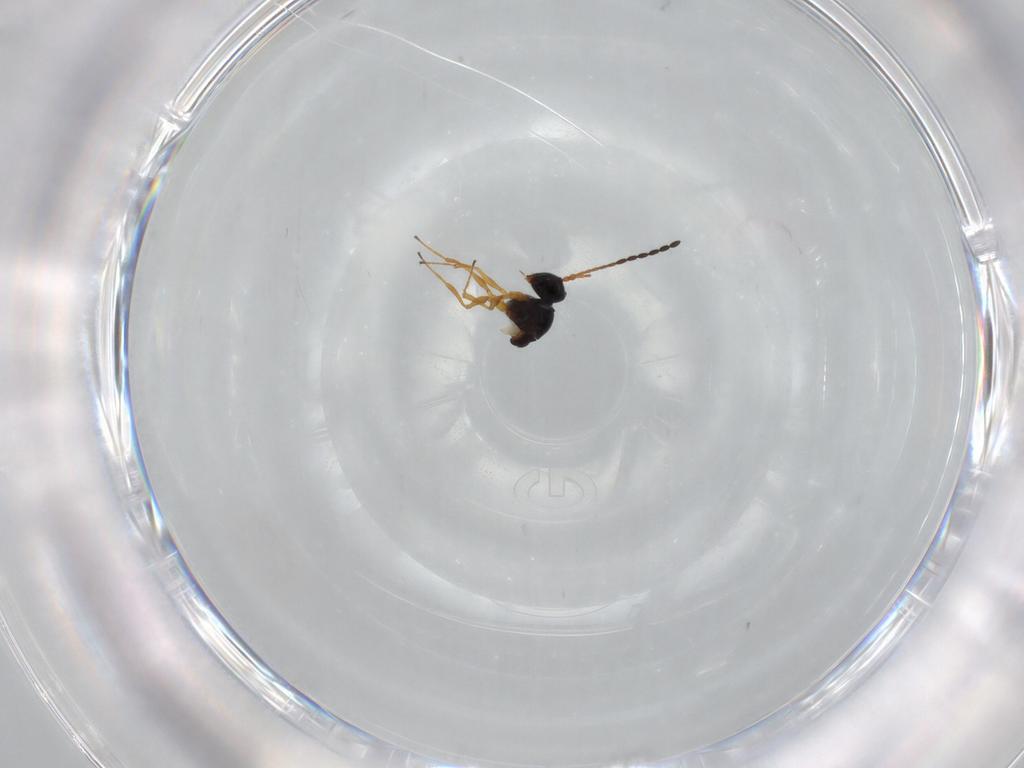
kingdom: Animalia
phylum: Arthropoda
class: Insecta
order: Hymenoptera
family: Figitidae
